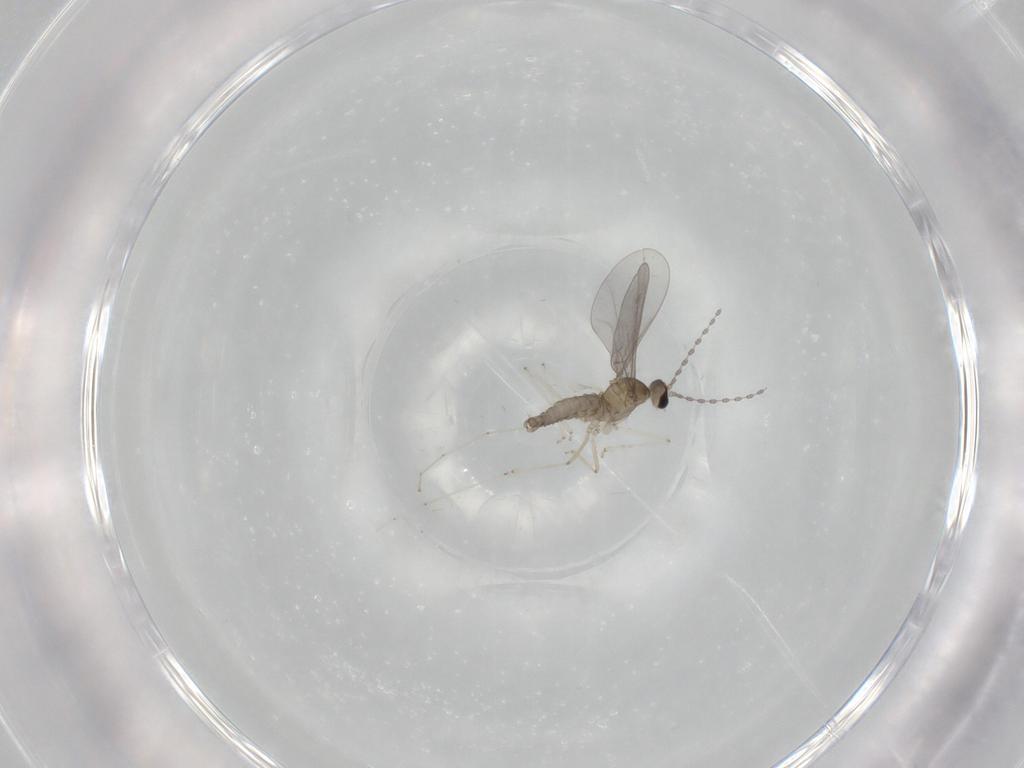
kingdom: Animalia
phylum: Arthropoda
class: Insecta
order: Diptera
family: Cecidomyiidae
